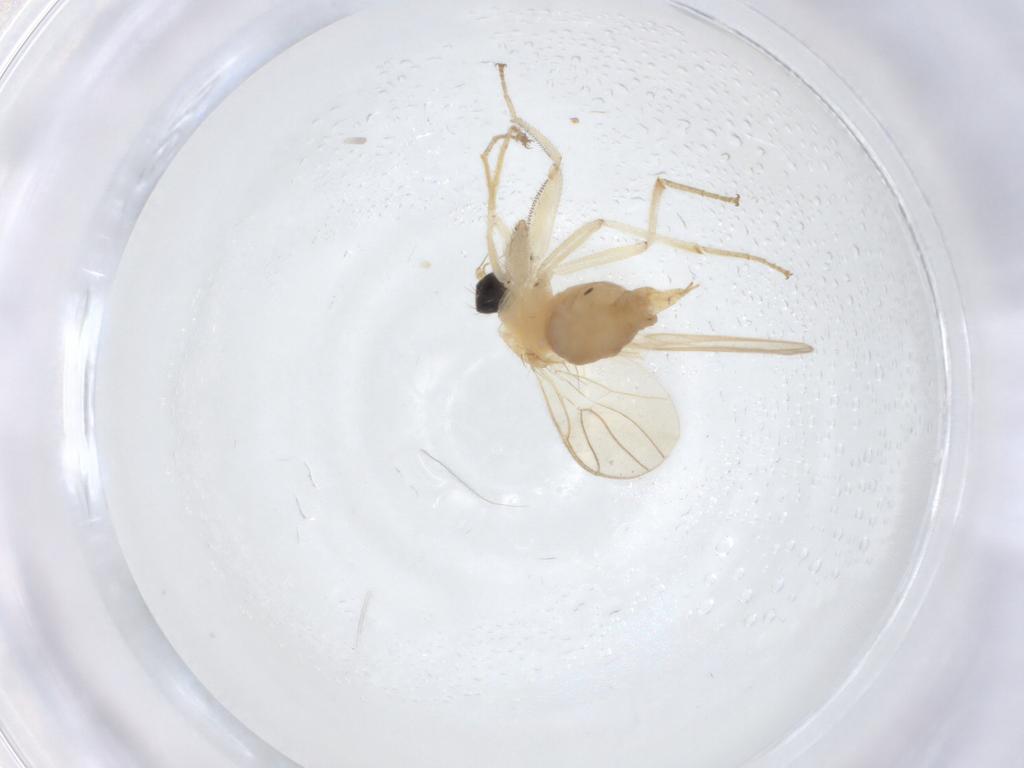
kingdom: Animalia
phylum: Arthropoda
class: Insecta
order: Diptera
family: Hybotidae
